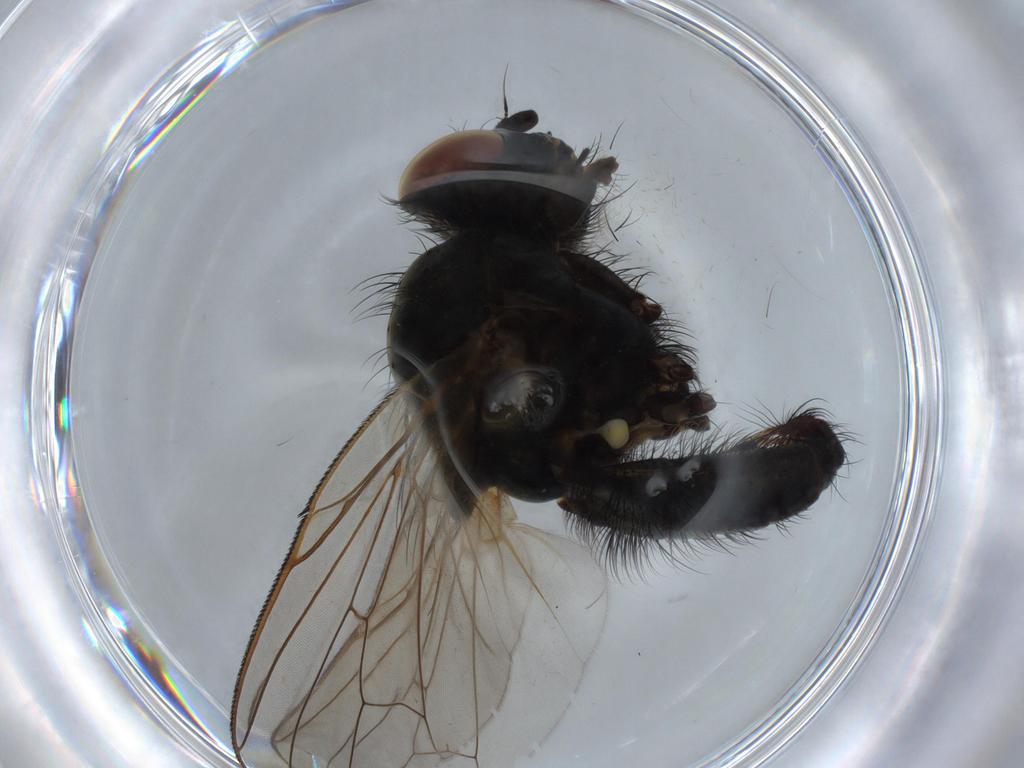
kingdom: Animalia
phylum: Arthropoda
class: Insecta
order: Diptera
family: Anthomyiidae
